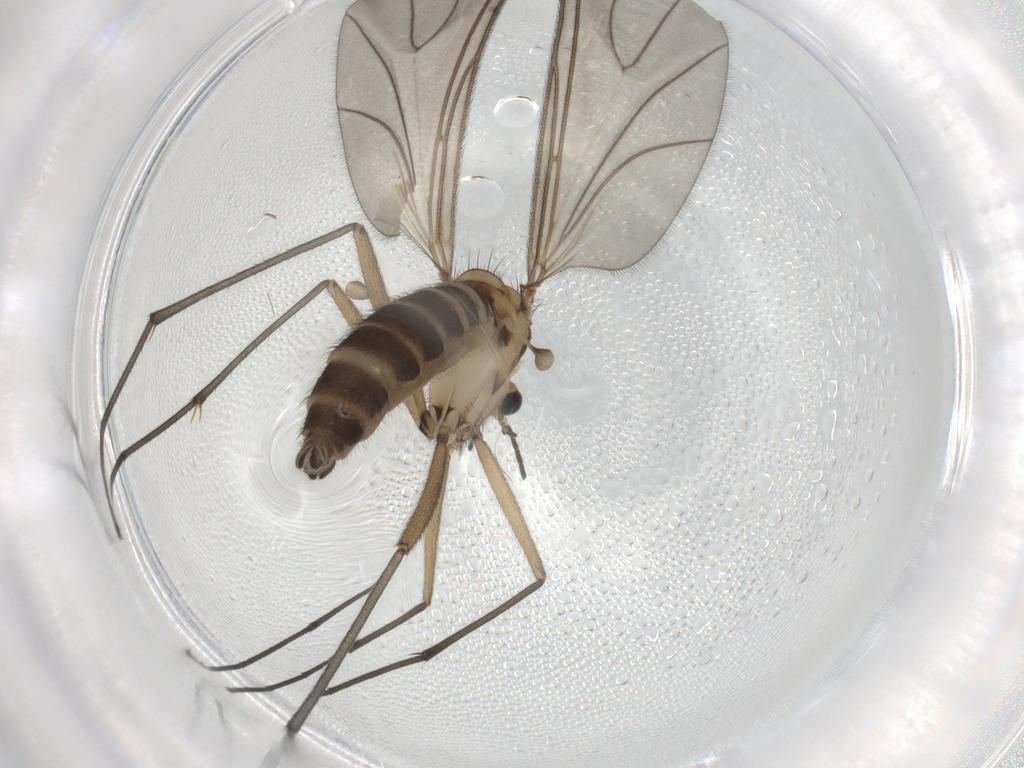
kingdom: Animalia
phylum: Arthropoda
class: Insecta
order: Diptera
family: Sciaridae
